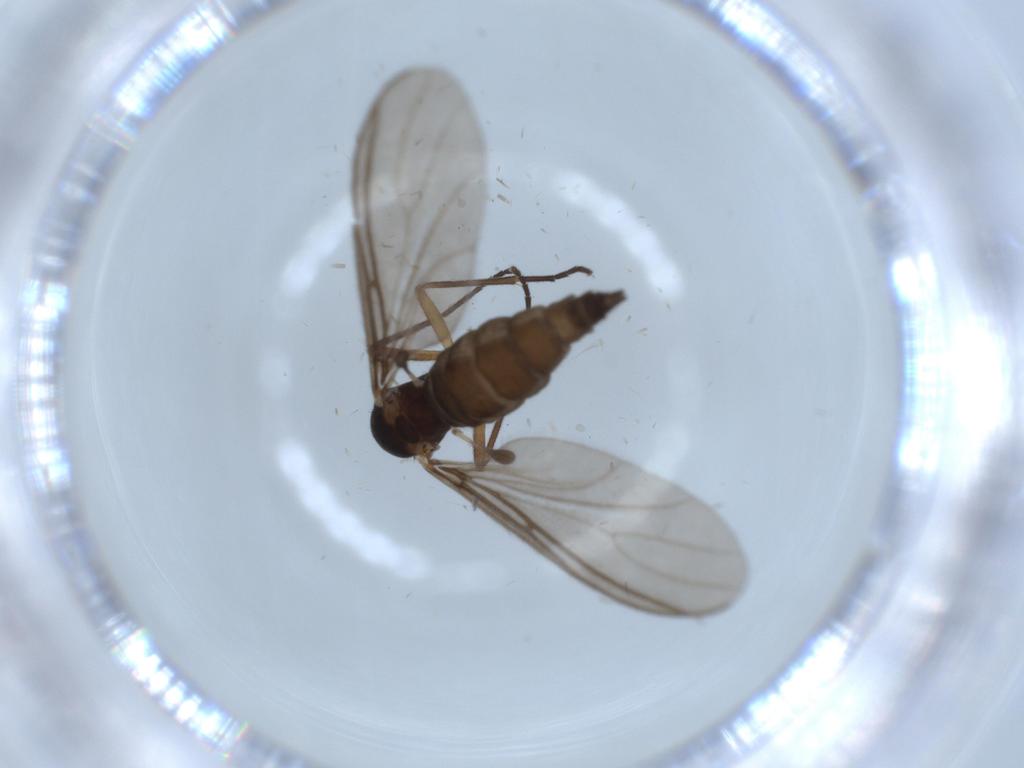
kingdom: Animalia
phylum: Arthropoda
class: Insecta
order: Diptera
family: Sciaridae
